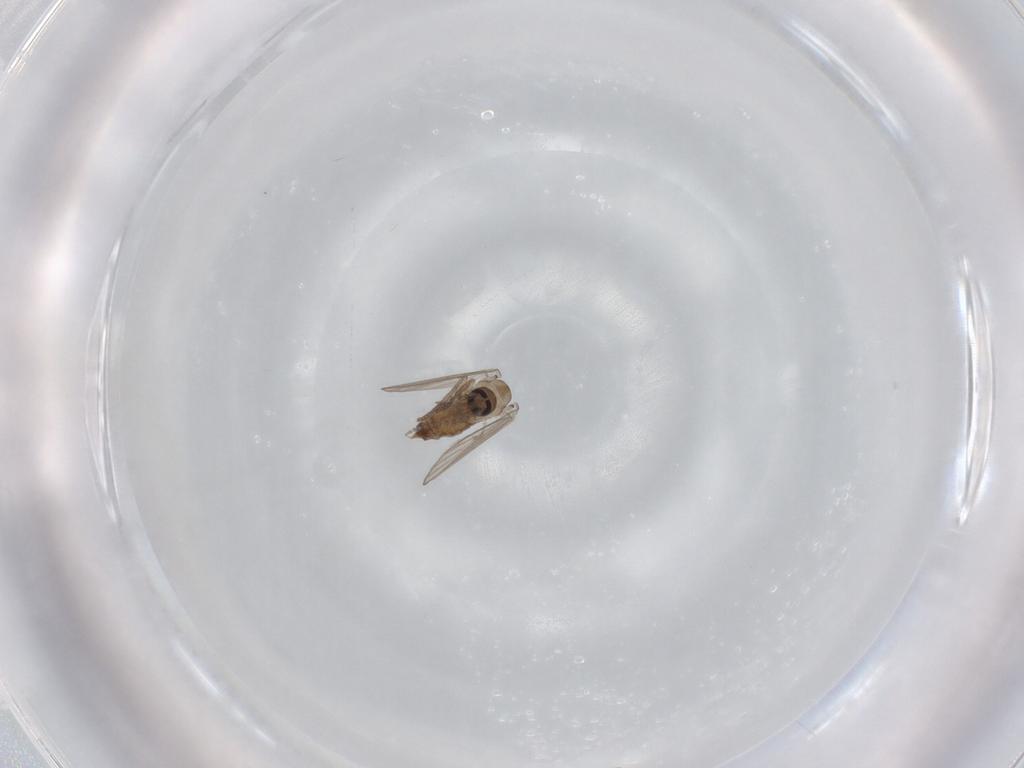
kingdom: Animalia
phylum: Arthropoda
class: Insecta
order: Diptera
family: Psychodidae
